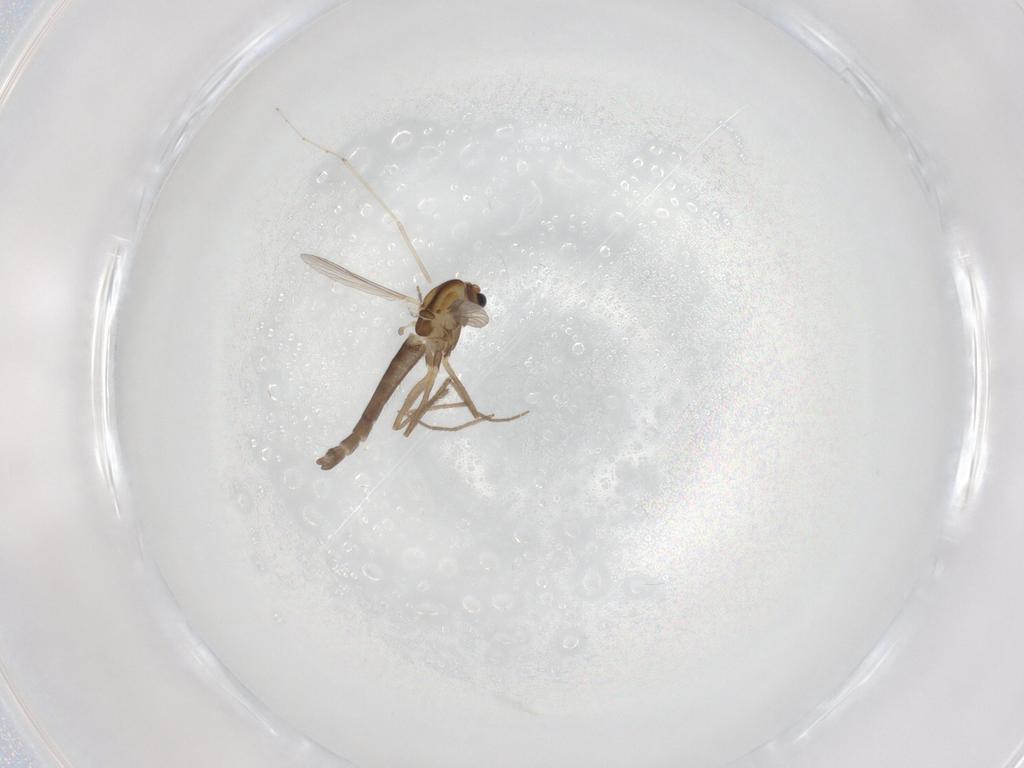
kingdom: Animalia
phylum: Arthropoda
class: Insecta
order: Diptera
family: Chironomidae
